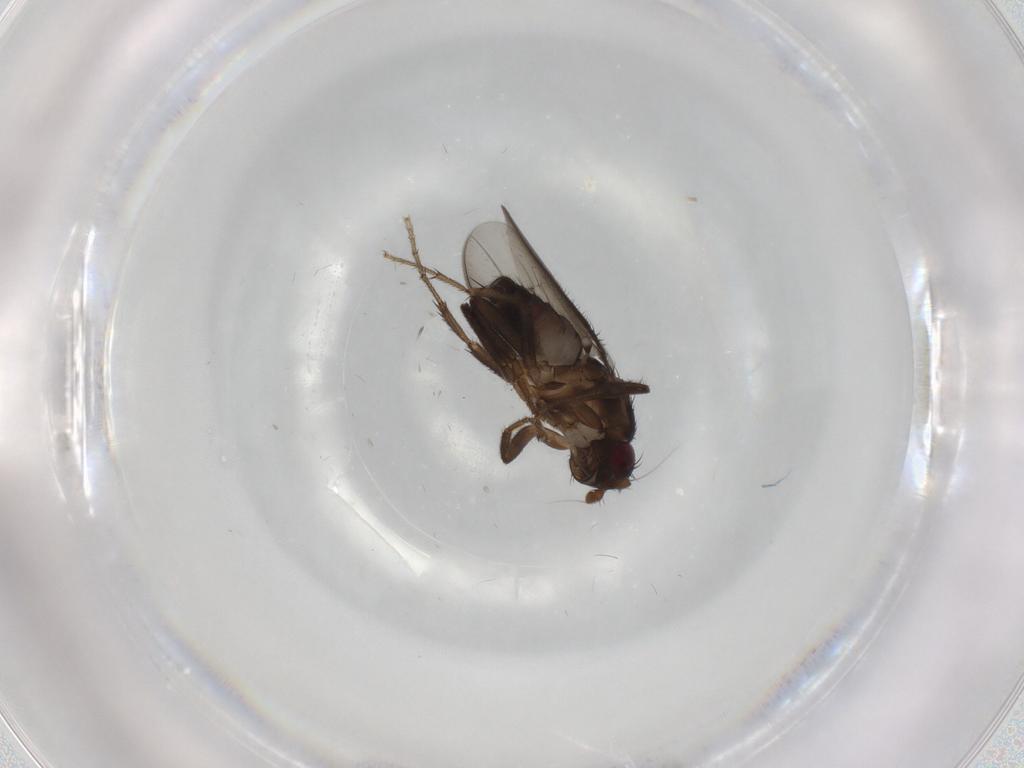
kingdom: Animalia
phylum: Arthropoda
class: Insecta
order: Diptera
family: Sphaeroceridae
